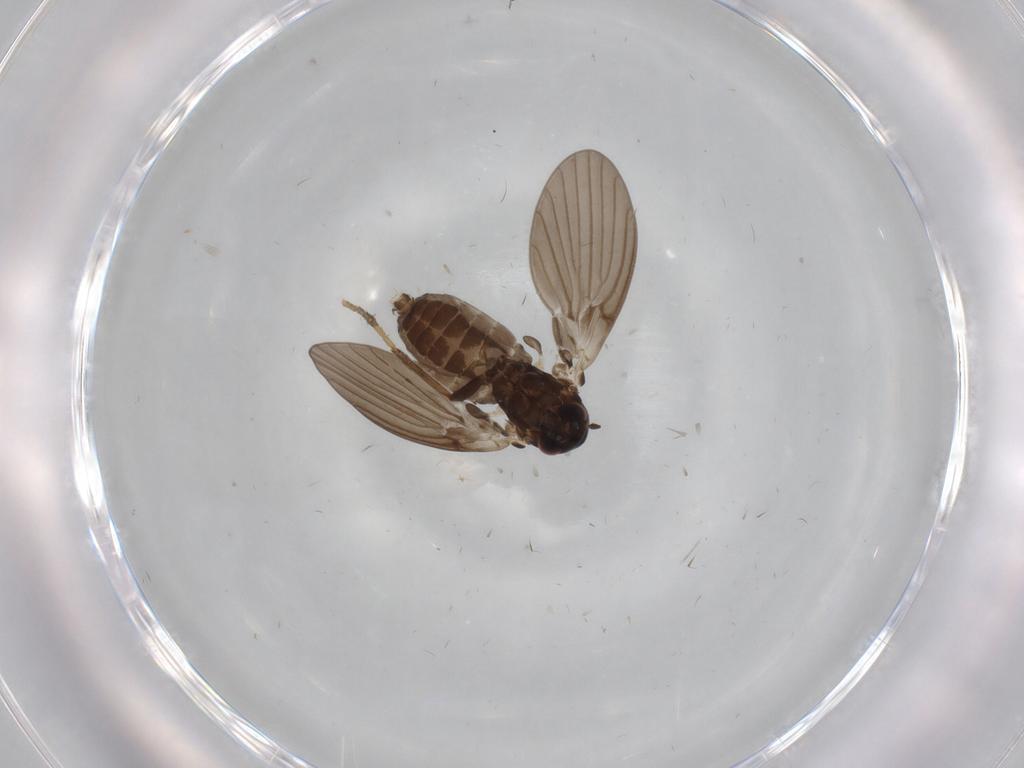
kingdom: Animalia
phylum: Arthropoda
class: Insecta
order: Diptera
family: Psychodidae
